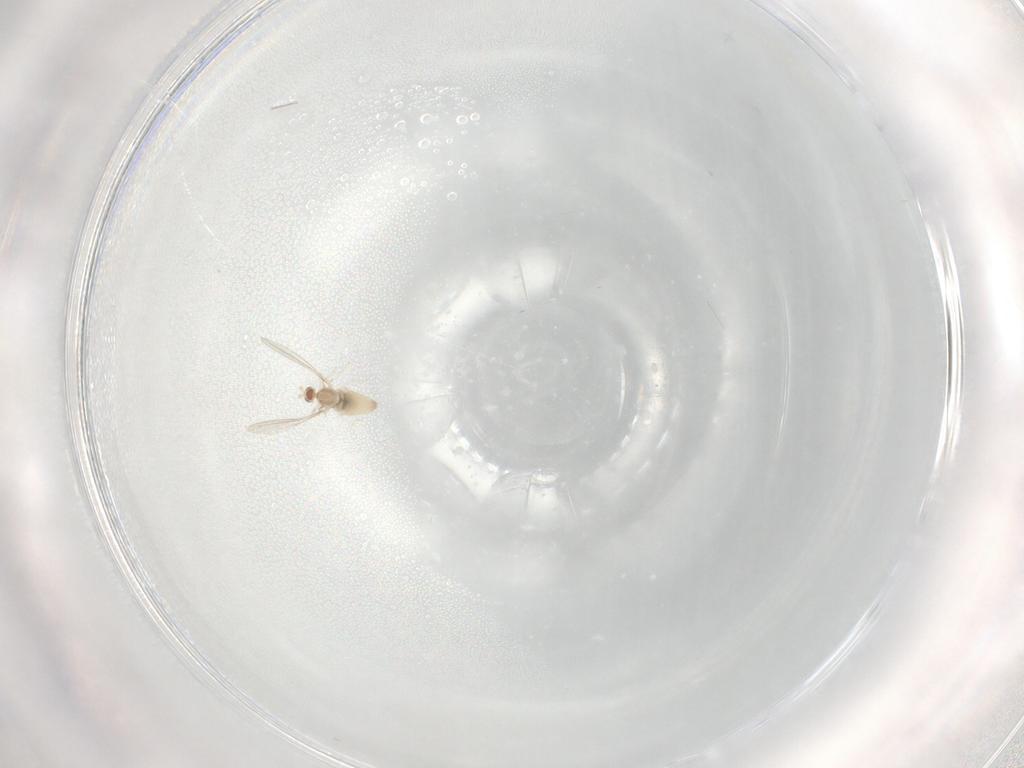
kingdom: Animalia
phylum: Arthropoda
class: Insecta
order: Diptera
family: Cecidomyiidae
